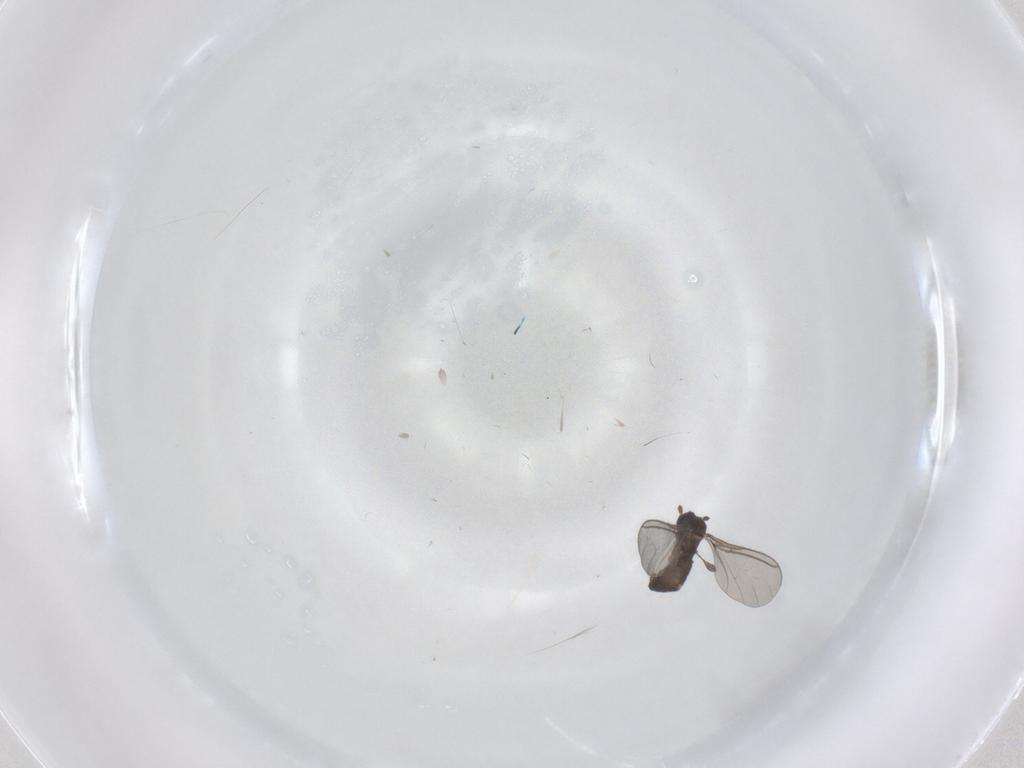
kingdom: Animalia
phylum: Arthropoda
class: Insecta
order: Diptera
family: Sciaridae
